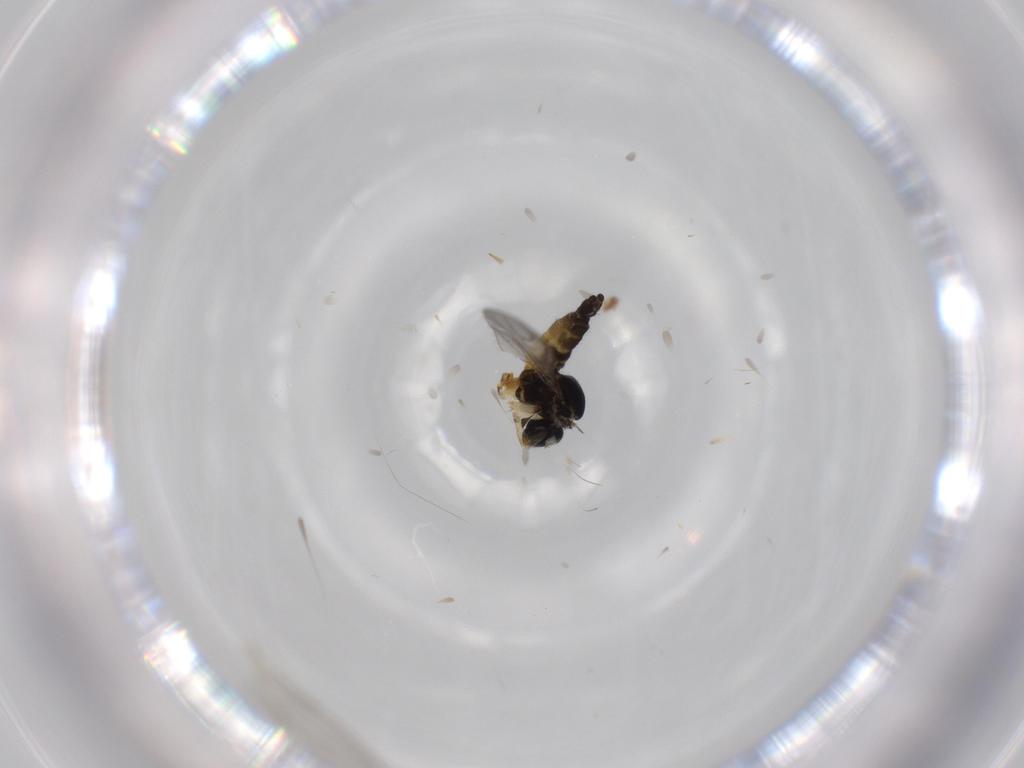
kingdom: Animalia
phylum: Arthropoda
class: Insecta
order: Diptera
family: Sciaridae
